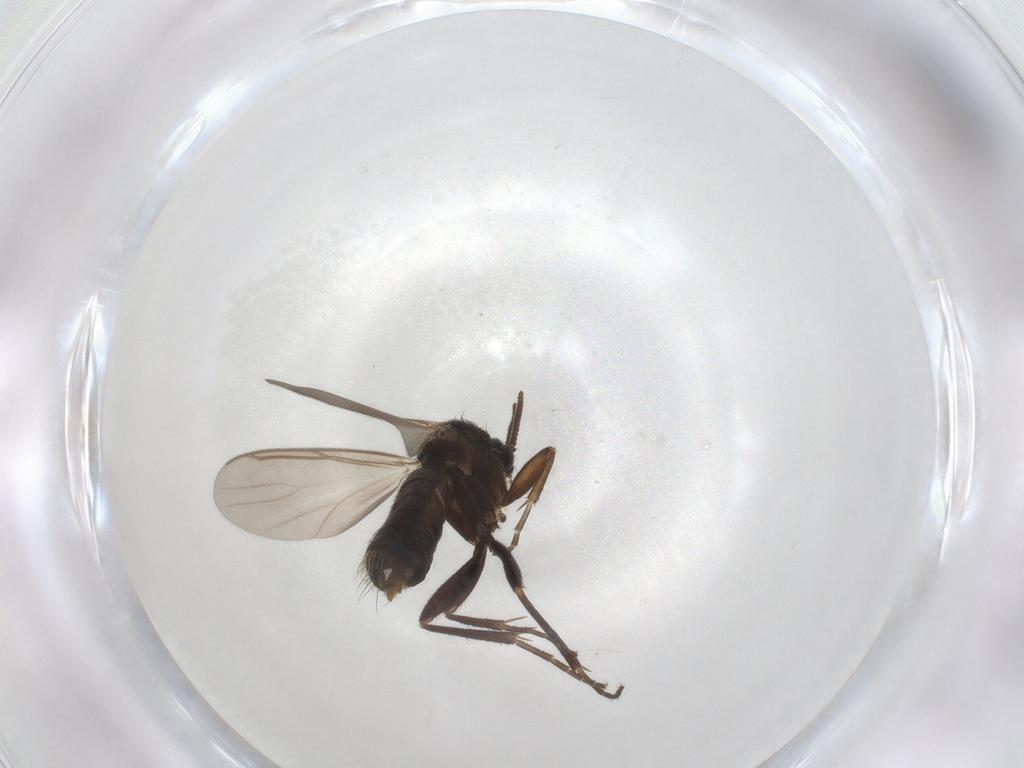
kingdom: Animalia
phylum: Arthropoda
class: Insecta
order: Diptera
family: Mycetophilidae
